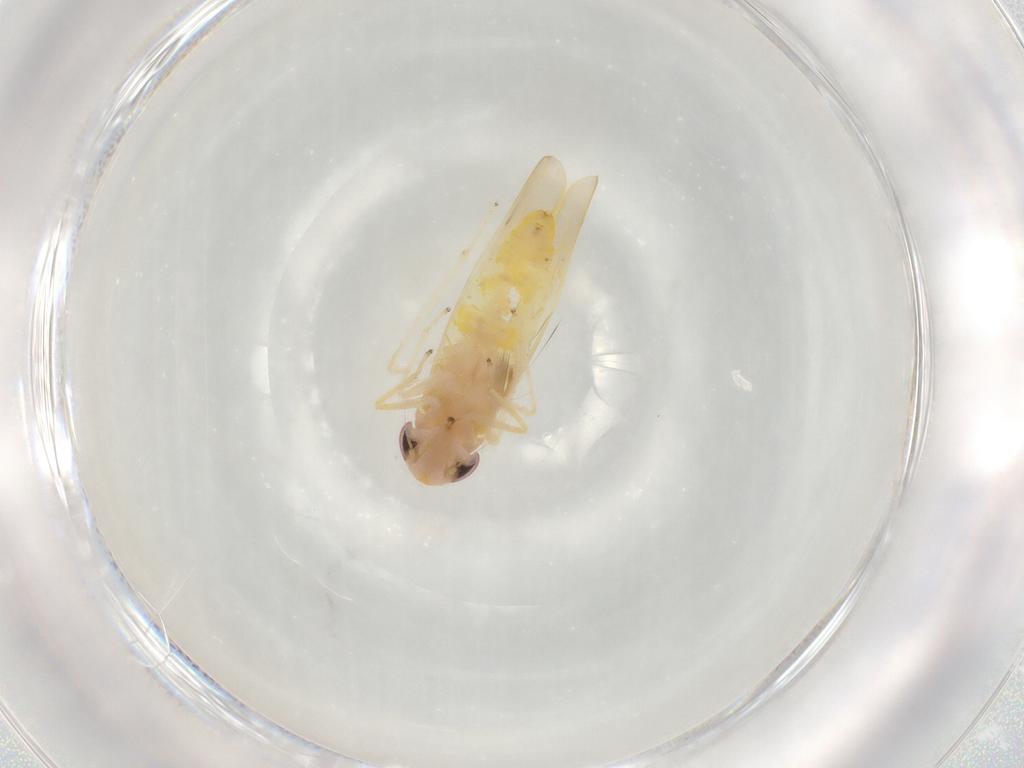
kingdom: Animalia
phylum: Arthropoda
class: Insecta
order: Hemiptera
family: Cicadellidae
